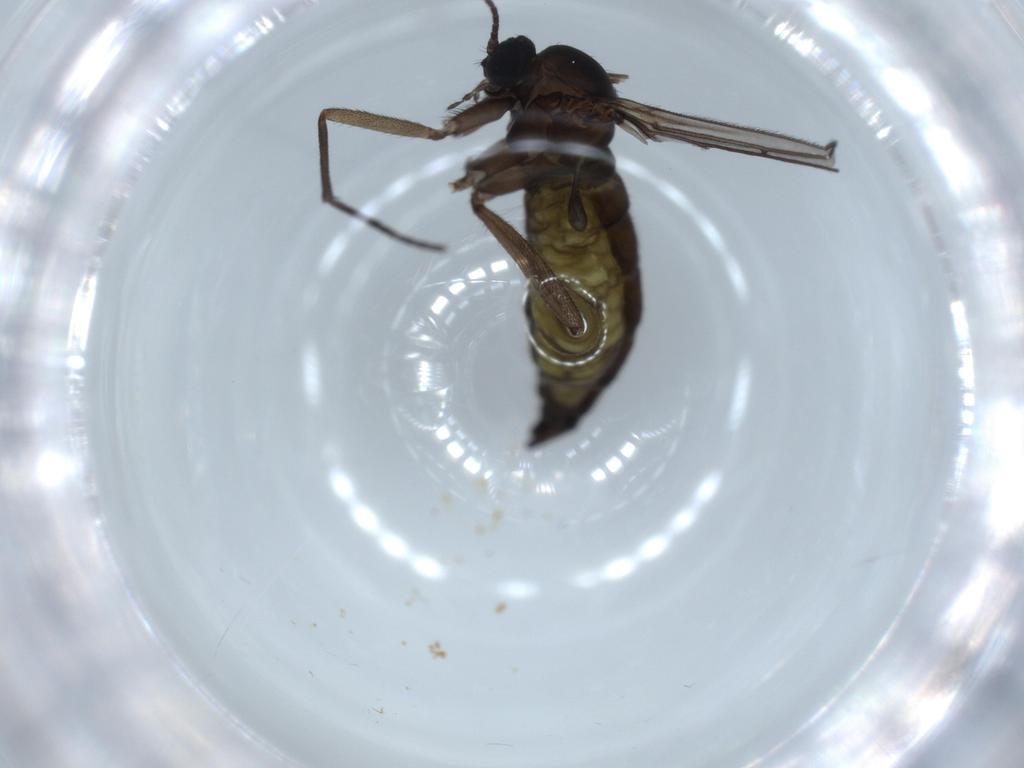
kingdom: Animalia
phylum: Arthropoda
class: Insecta
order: Diptera
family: Sciaridae
